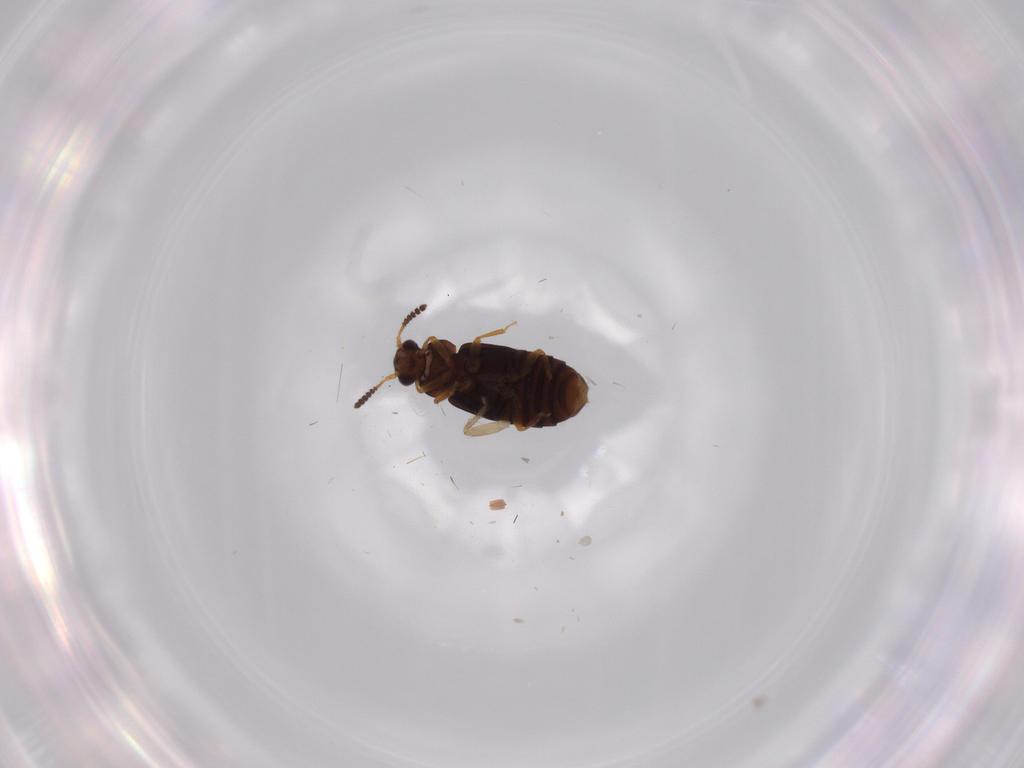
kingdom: Animalia
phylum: Arthropoda
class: Insecta
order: Coleoptera
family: Staphylinidae
